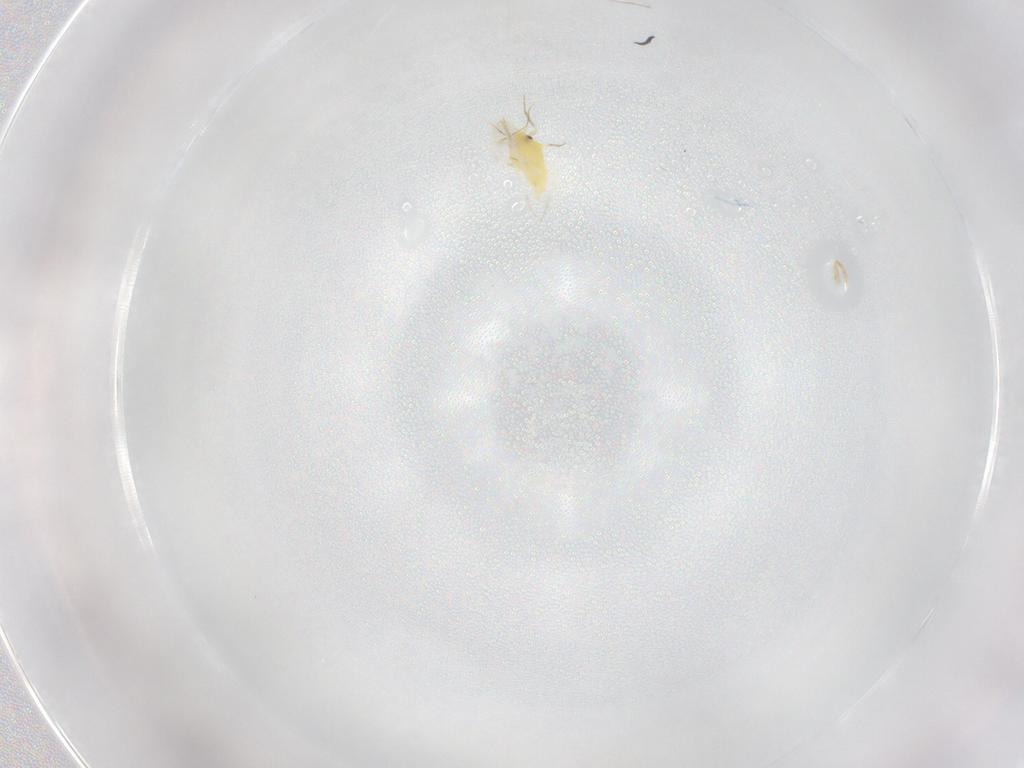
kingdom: Animalia
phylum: Arthropoda
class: Insecta
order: Hemiptera
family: Aleyrodidae
